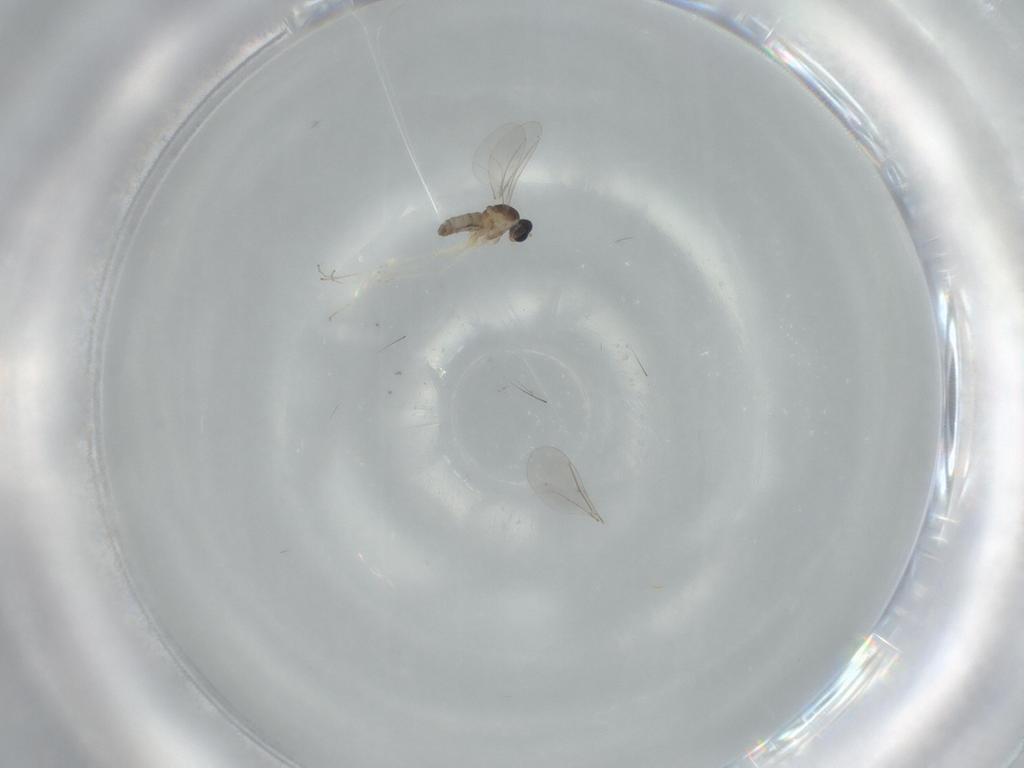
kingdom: Animalia
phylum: Arthropoda
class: Insecta
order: Diptera
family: Cecidomyiidae
